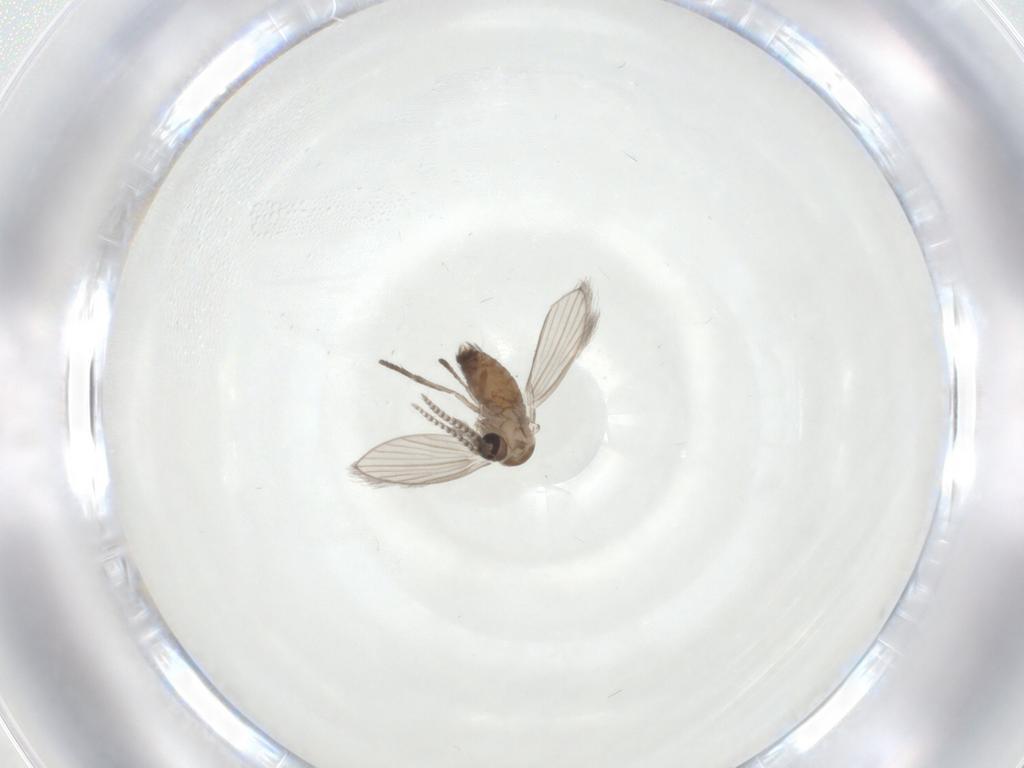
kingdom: Animalia
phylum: Arthropoda
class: Insecta
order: Diptera
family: Psychodidae
